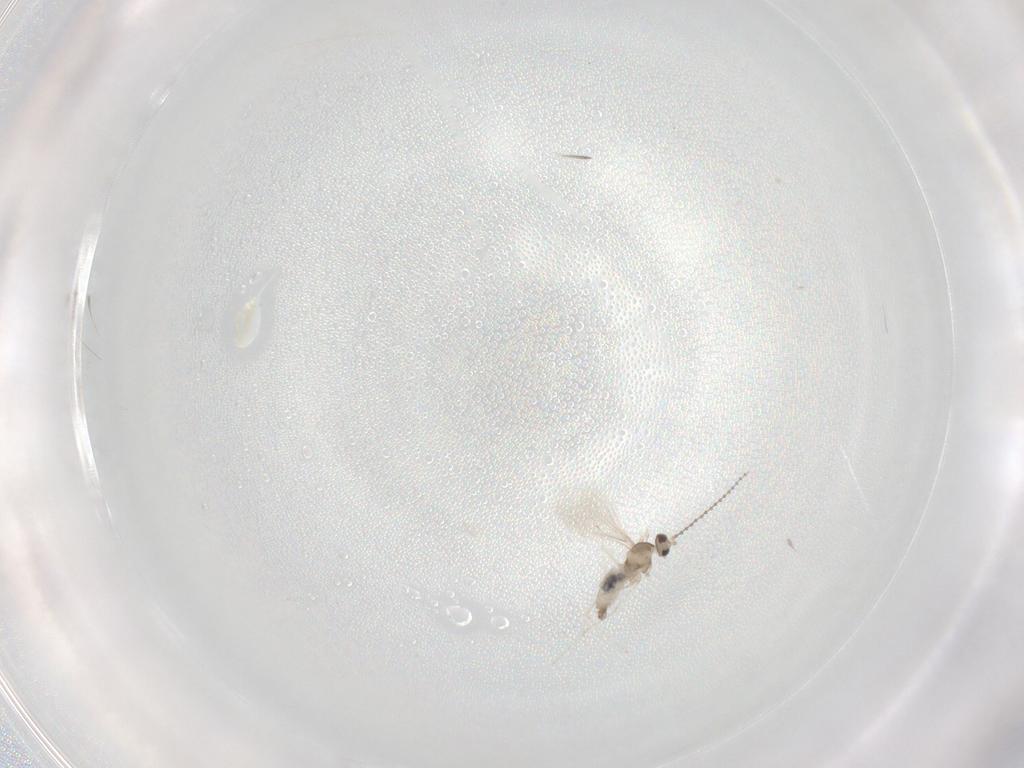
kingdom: Animalia
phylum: Arthropoda
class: Insecta
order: Diptera
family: Cecidomyiidae
